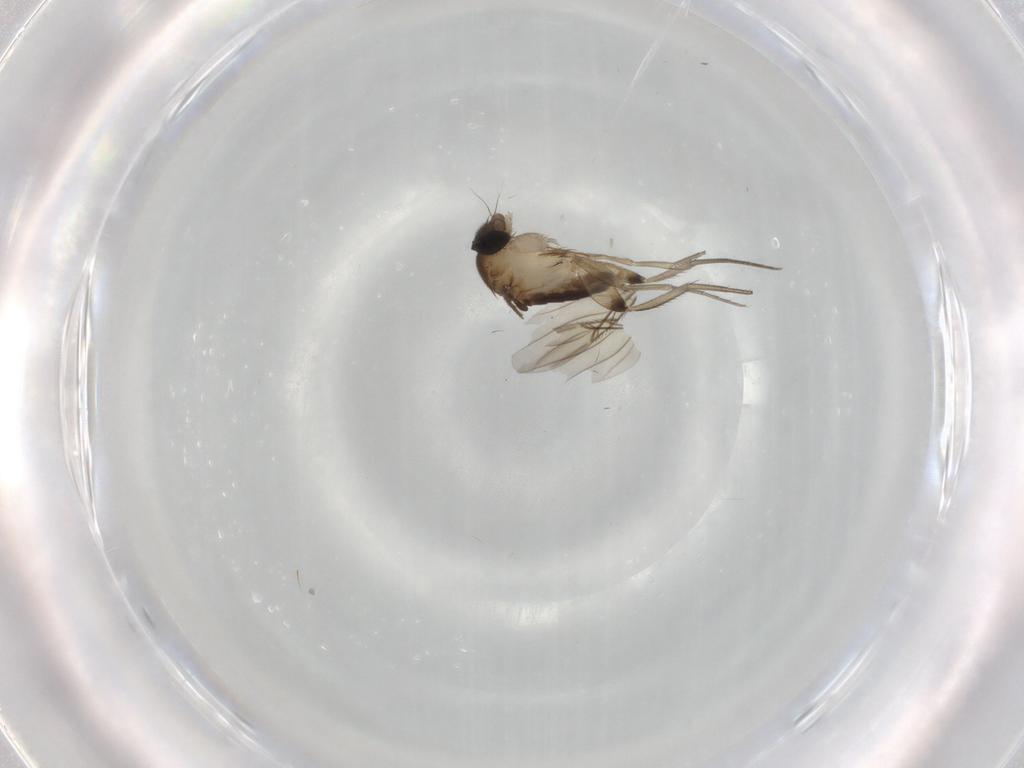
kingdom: Animalia
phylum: Arthropoda
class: Insecta
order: Diptera
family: Phoridae
